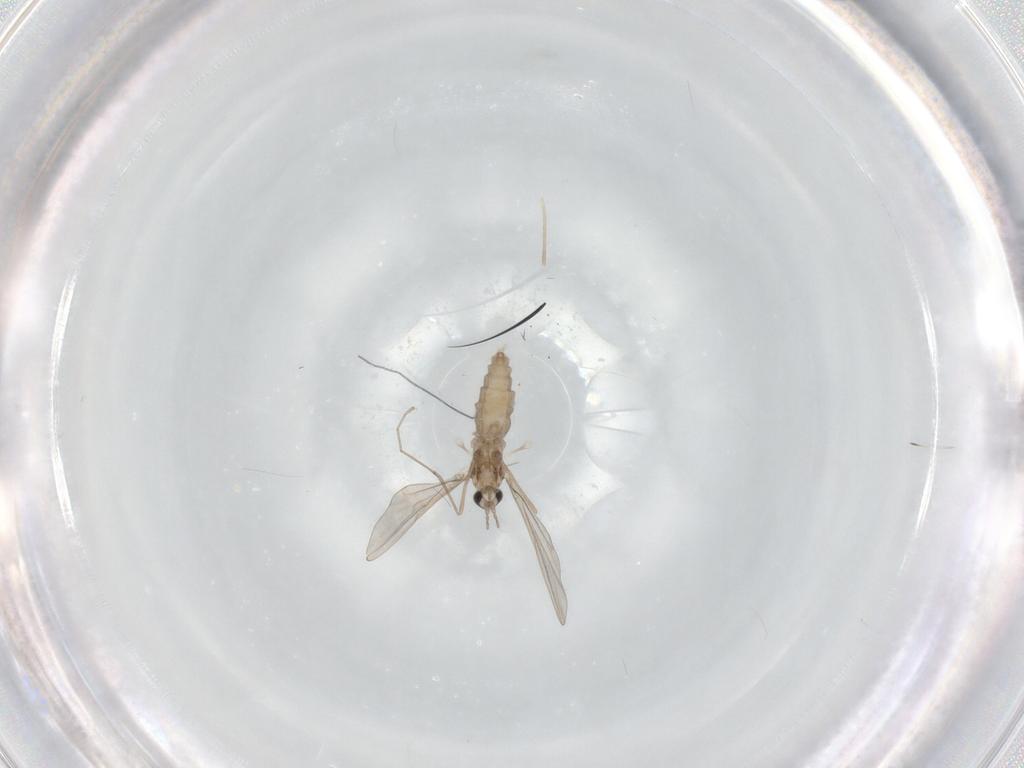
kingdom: Animalia
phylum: Arthropoda
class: Insecta
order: Diptera
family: Cecidomyiidae
